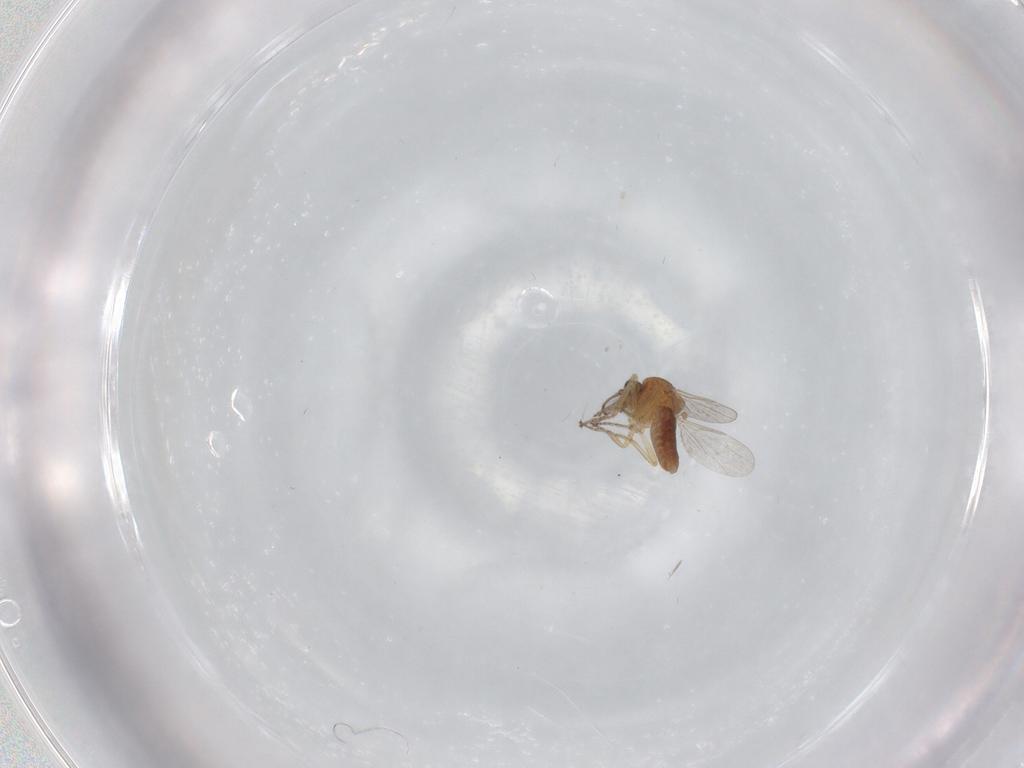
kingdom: Animalia
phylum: Arthropoda
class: Insecta
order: Diptera
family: Ceratopogonidae
